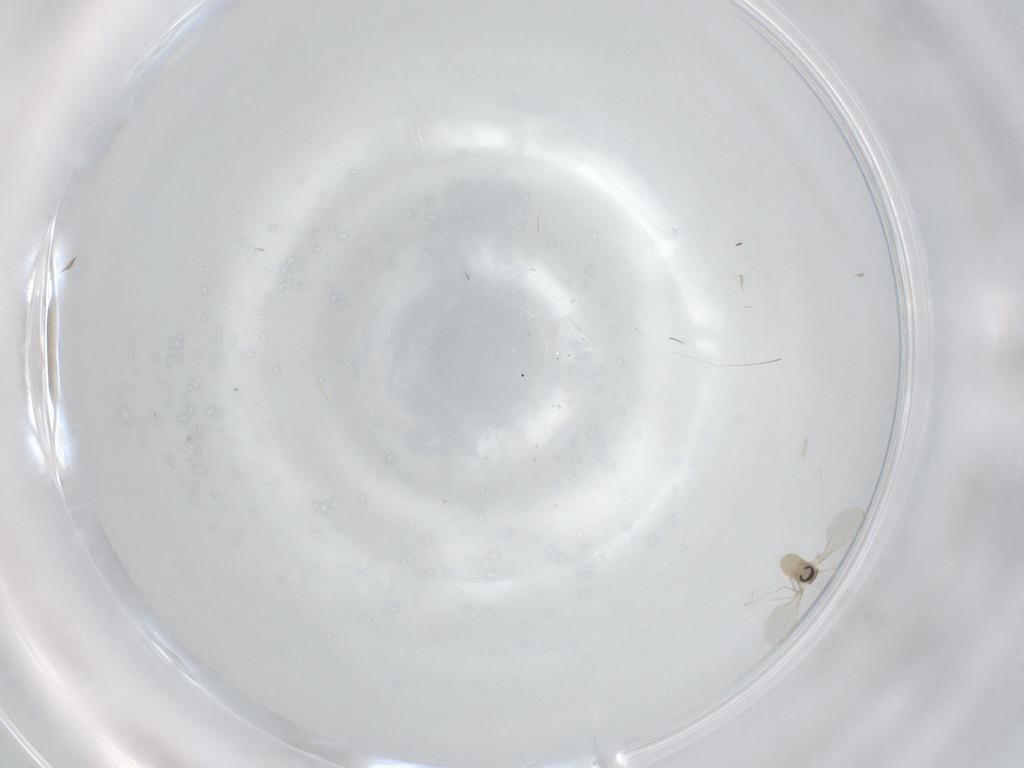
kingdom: Animalia
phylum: Arthropoda
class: Insecta
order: Diptera
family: Cecidomyiidae
